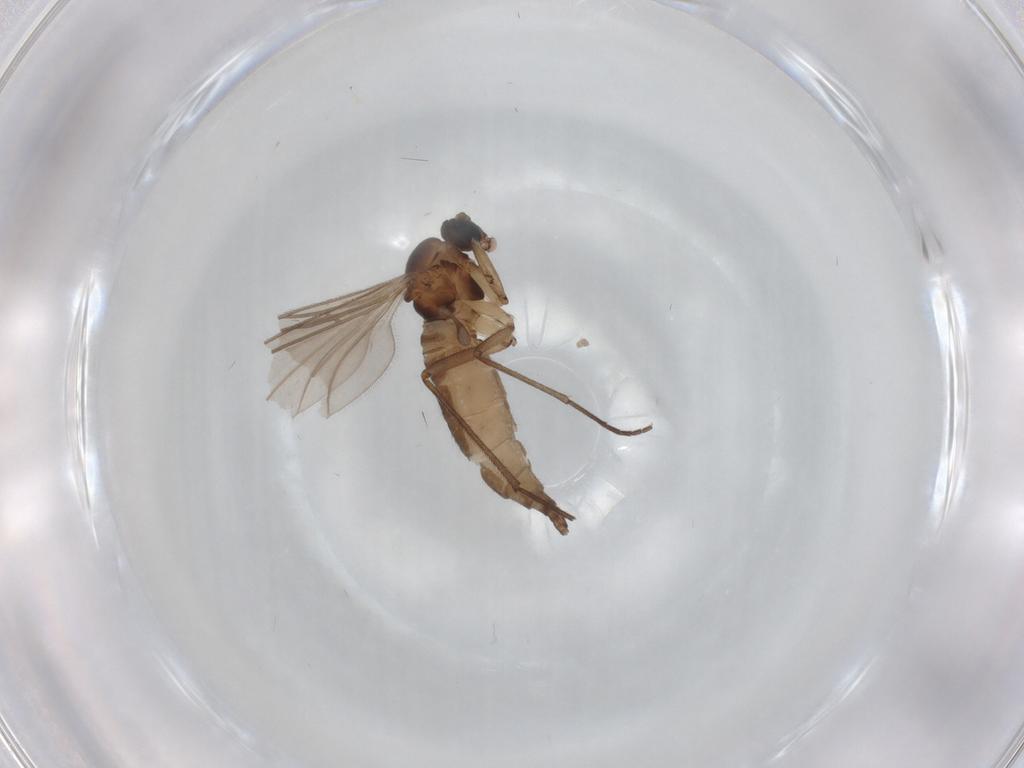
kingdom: Animalia
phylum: Arthropoda
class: Insecta
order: Diptera
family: Sciaridae
